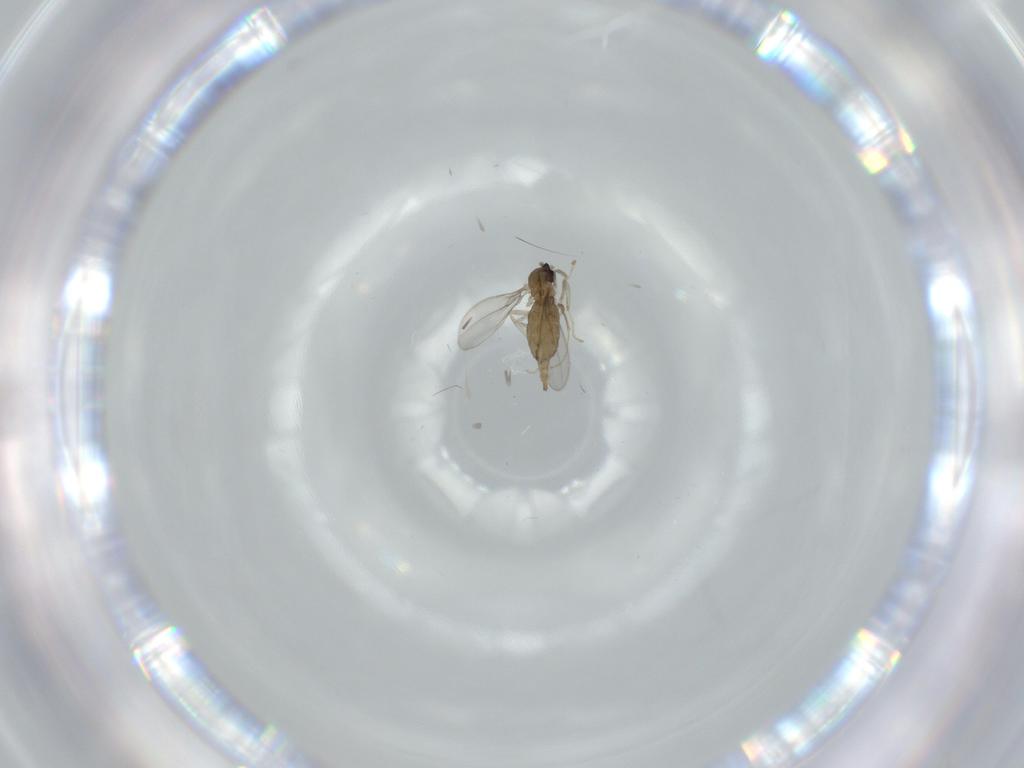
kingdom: Animalia
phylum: Arthropoda
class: Insecta
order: Diptera
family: Cecidomyiidae
